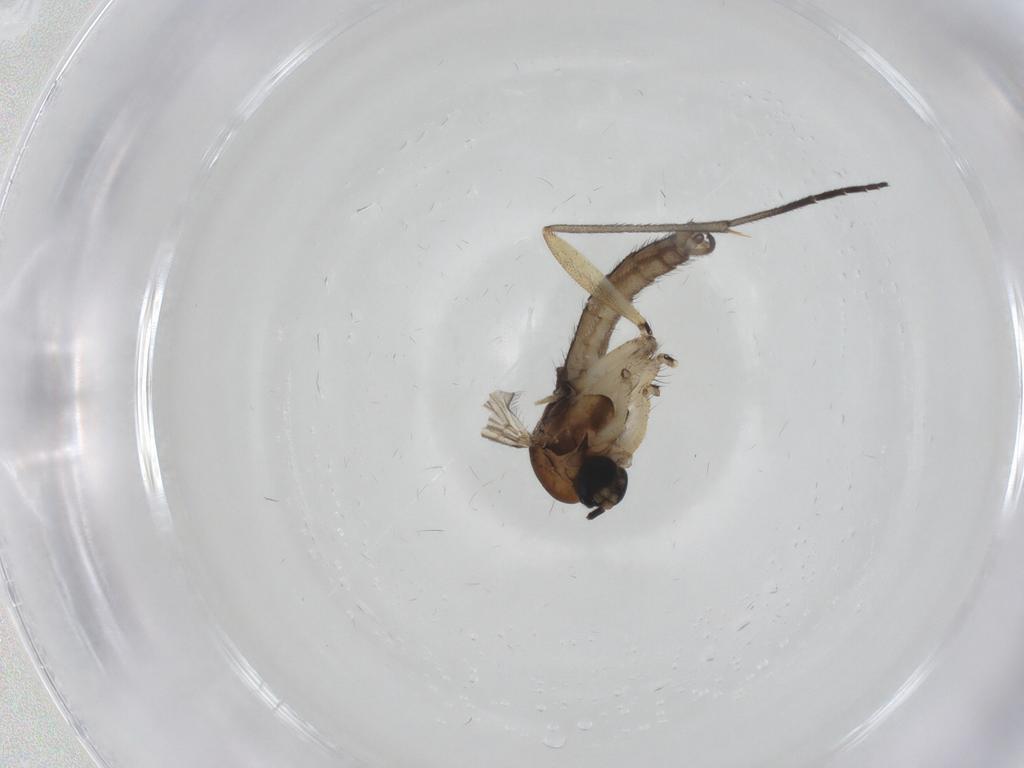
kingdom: Animalia
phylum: Arthropoda
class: Insecta
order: Diptera
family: Sciaridae
